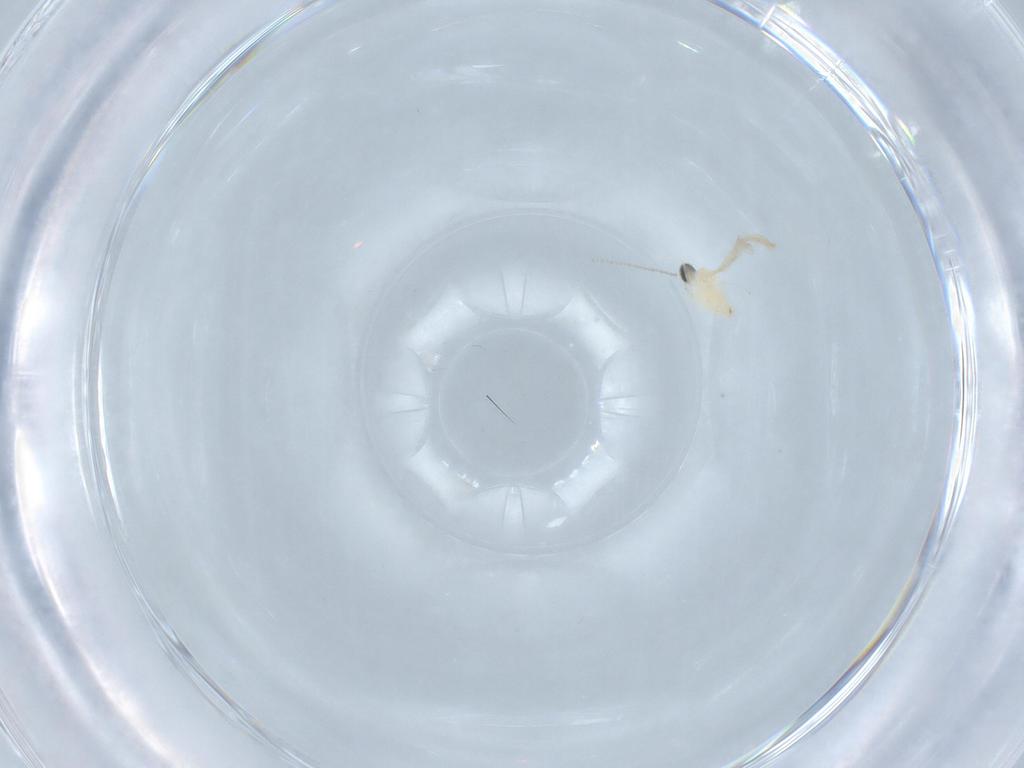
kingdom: Animalia
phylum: Arthropoda
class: Insecta
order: Diptera
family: Cecidomyiidae
